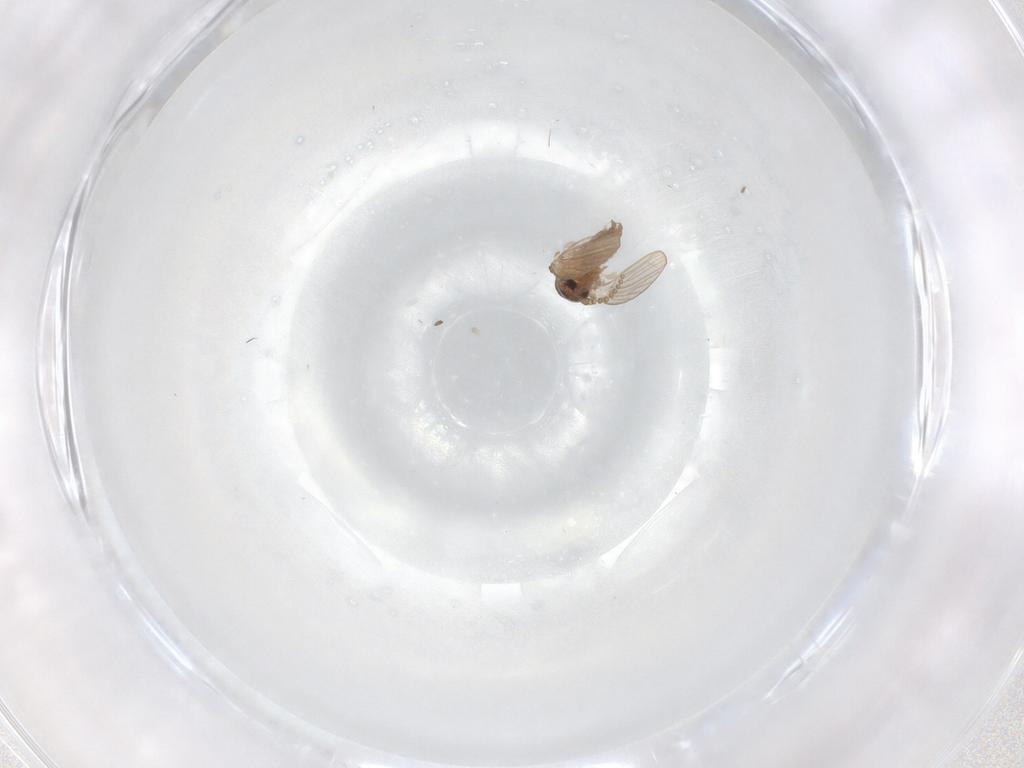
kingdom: Animalia
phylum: Arthropoda
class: Insecta
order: Diptera
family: Psychodidae
